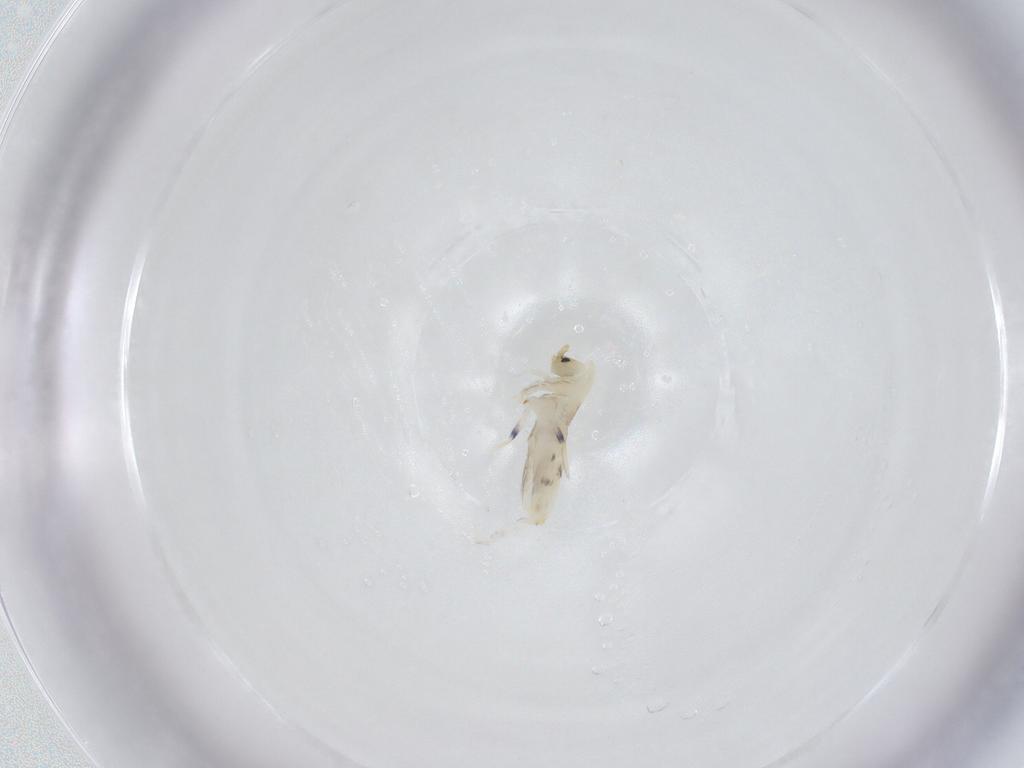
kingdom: Animalia
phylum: Arthropoda
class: Collembola
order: Entomobryomorpha
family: Entomobryidae
